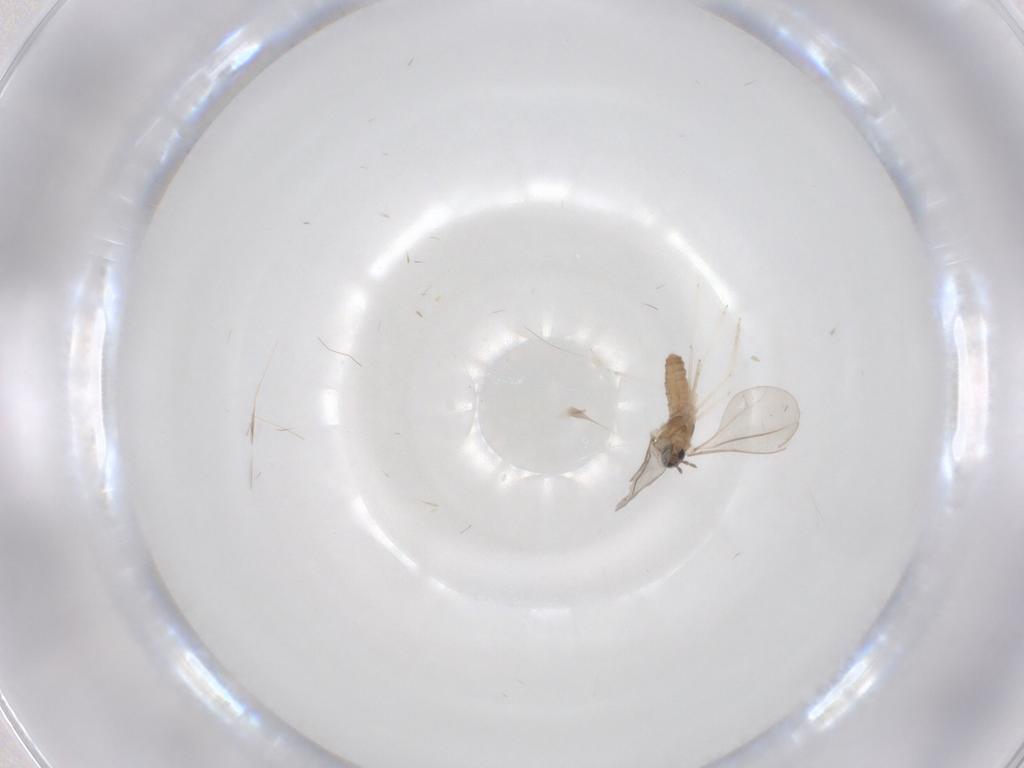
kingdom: Animalia
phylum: Arthropoda
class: Insecta
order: Diptera
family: Cecidomyiidae
